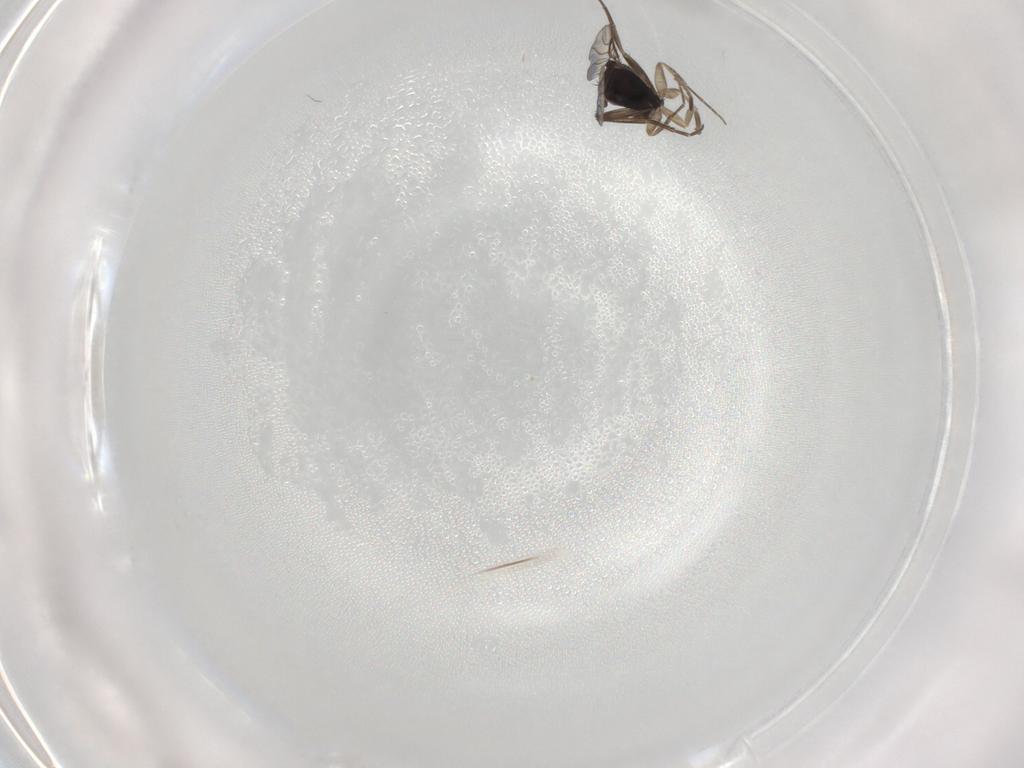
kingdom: Animalia
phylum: Arthropoda
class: Insecta
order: Diptera
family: Phoridae
